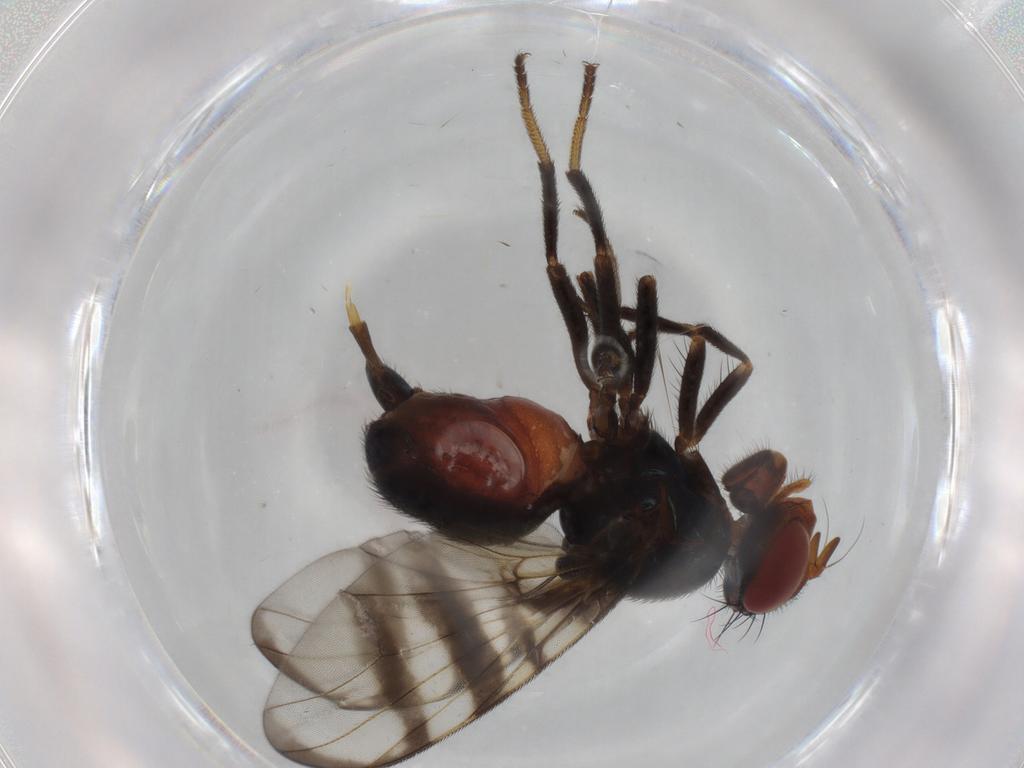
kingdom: Animalia
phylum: Arthropoda
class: Insecta
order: Diptera
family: Platystomatidae
